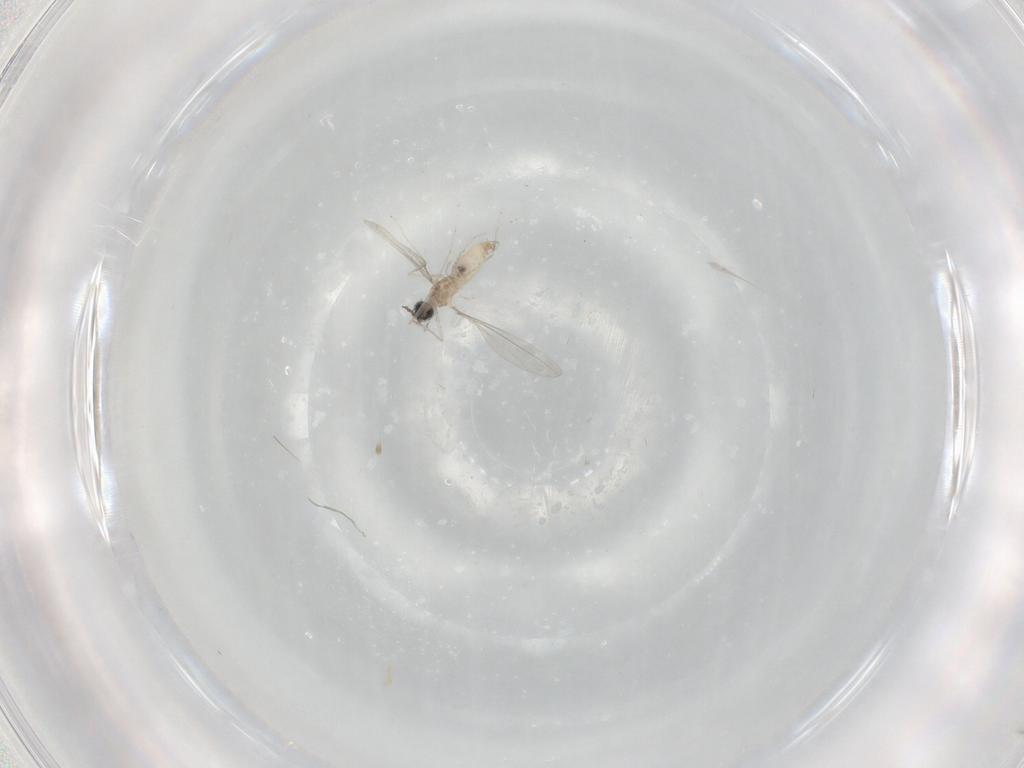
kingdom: Animalia
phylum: Arthropoda
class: Insecta
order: Diptera
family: Cecidomyiidae
